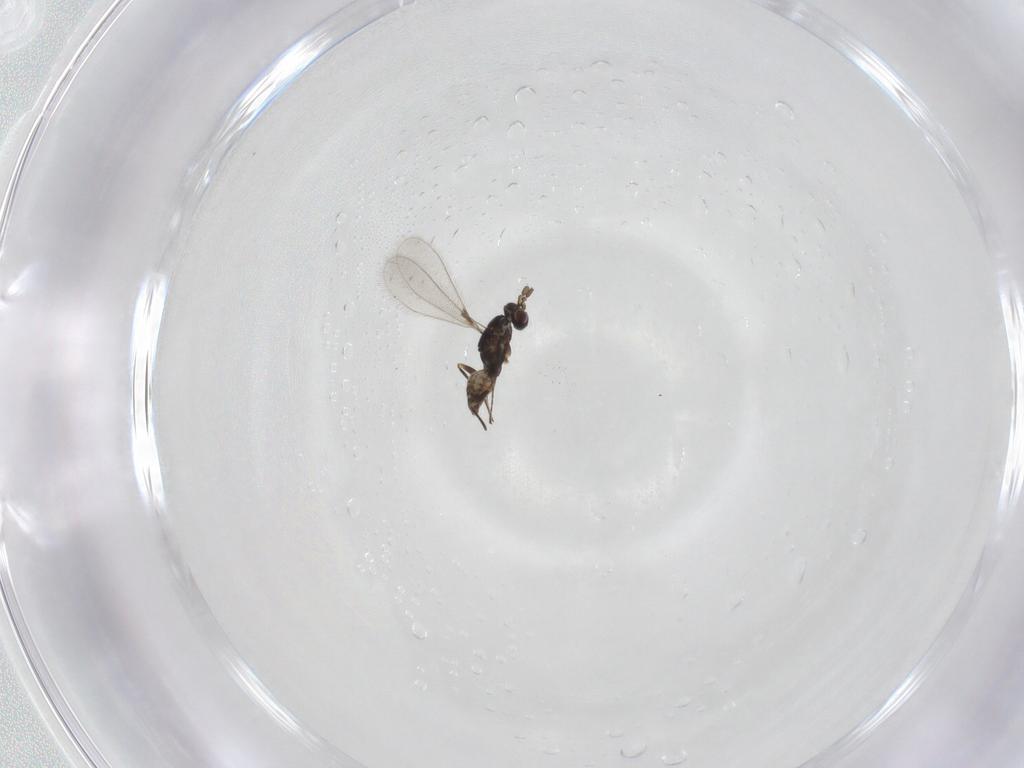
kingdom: Animalia
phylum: Arthropoda
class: Insecta
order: Hymenoptera
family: Mymaridae
